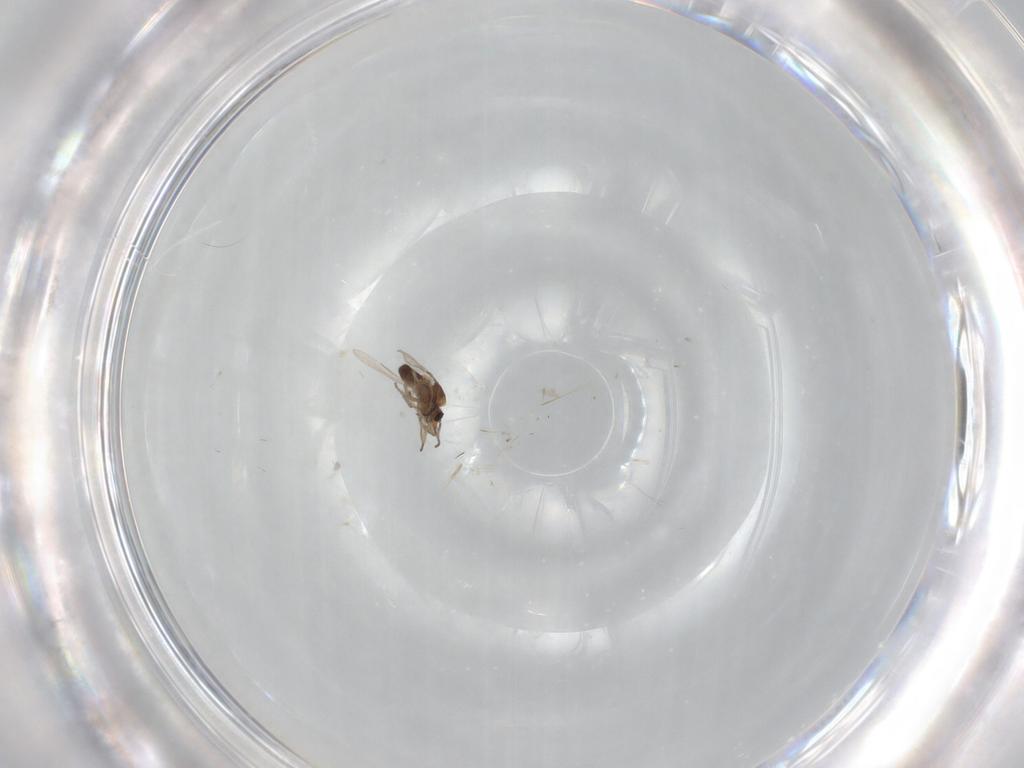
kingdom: Animalia
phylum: Arthropoda
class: Insecta
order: Diptera
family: Ceratopogonidae
